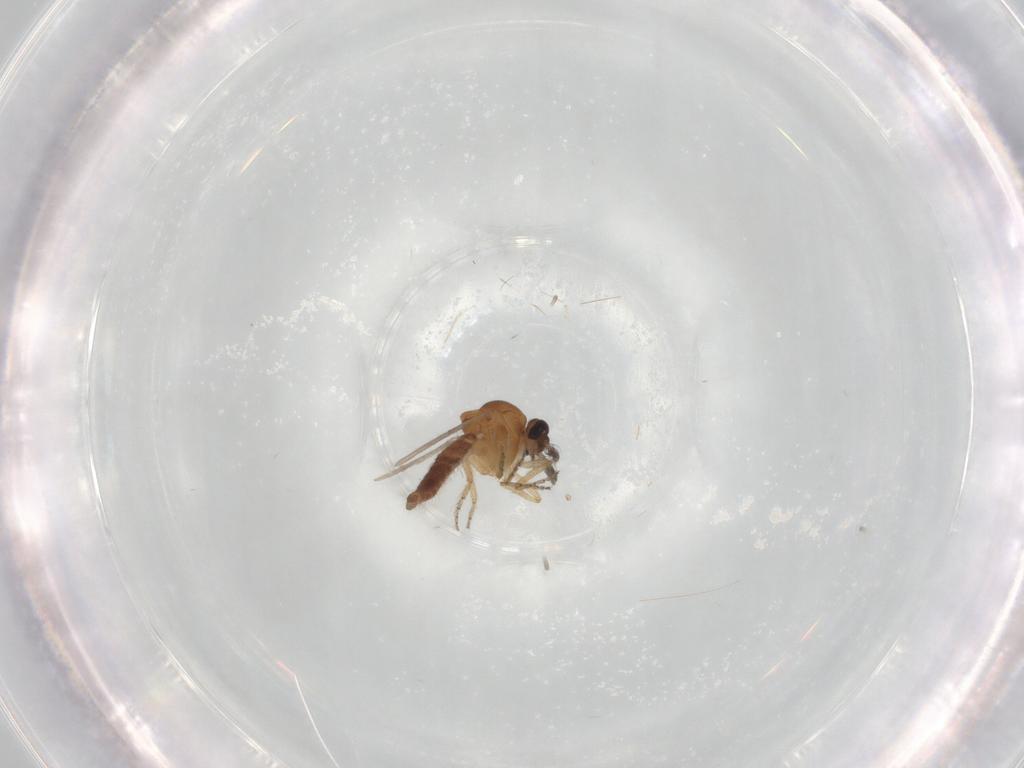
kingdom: Animalia
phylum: Arthropoda
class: Insecta
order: Diptera
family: Ceratopogonidae
